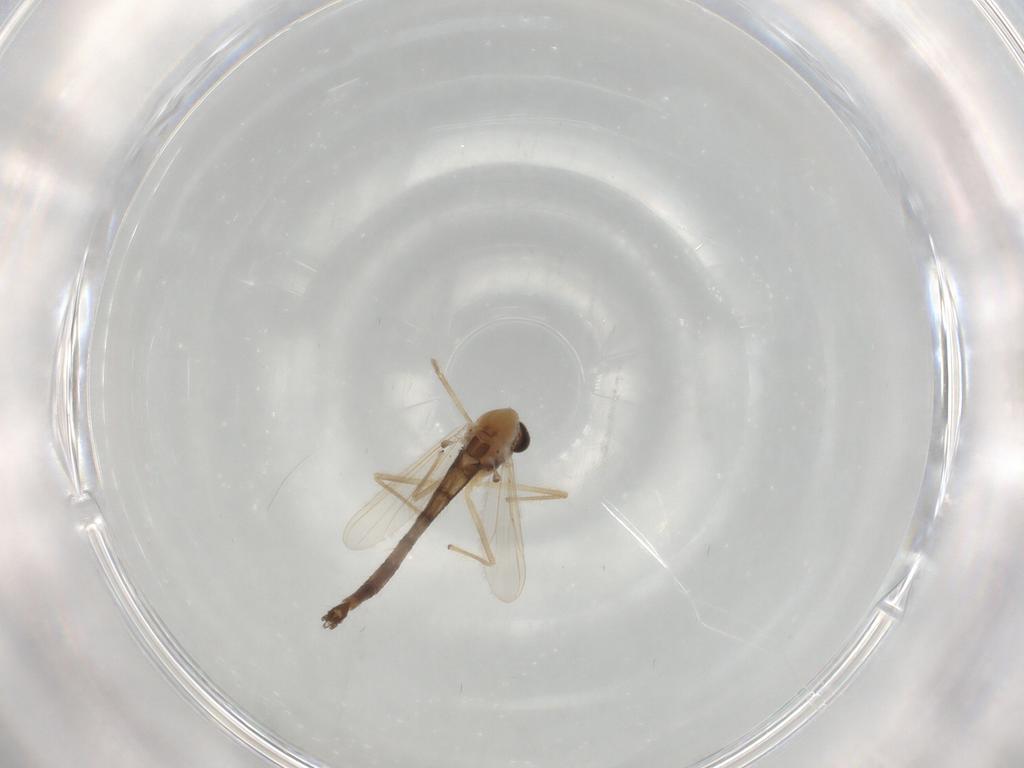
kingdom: Animalia
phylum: Arthropoda
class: Insecta
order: Diptera
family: Chironomidae
